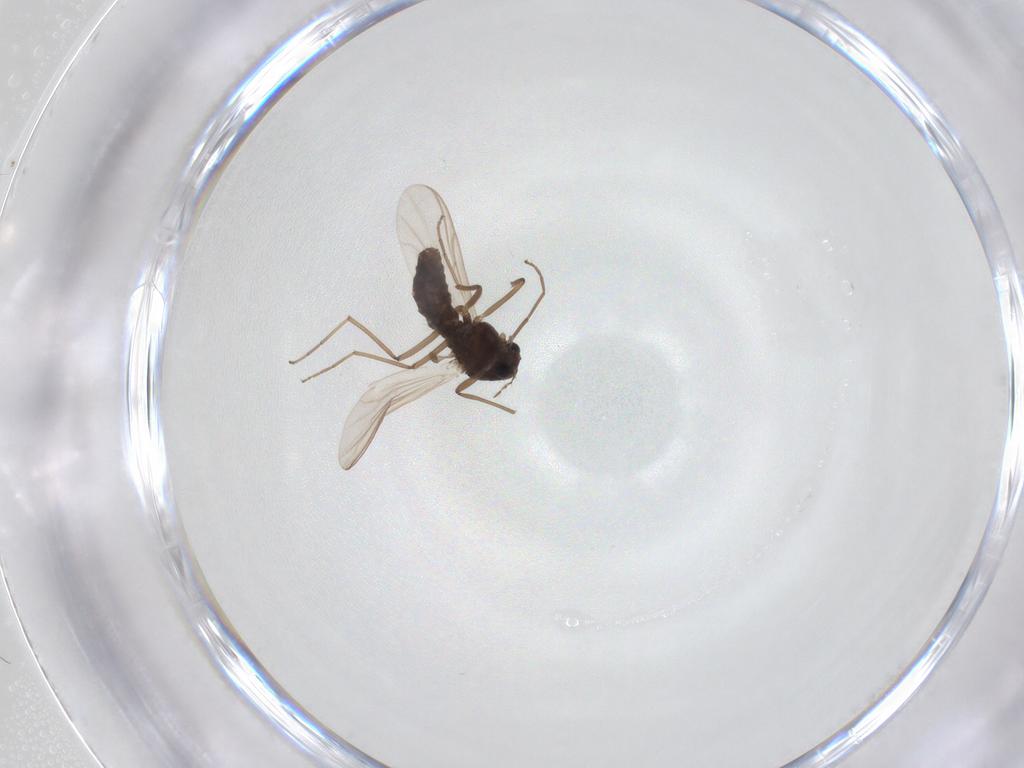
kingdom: Animalia
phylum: Arthropoda
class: Insecta
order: Diptera
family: Chironomidae
